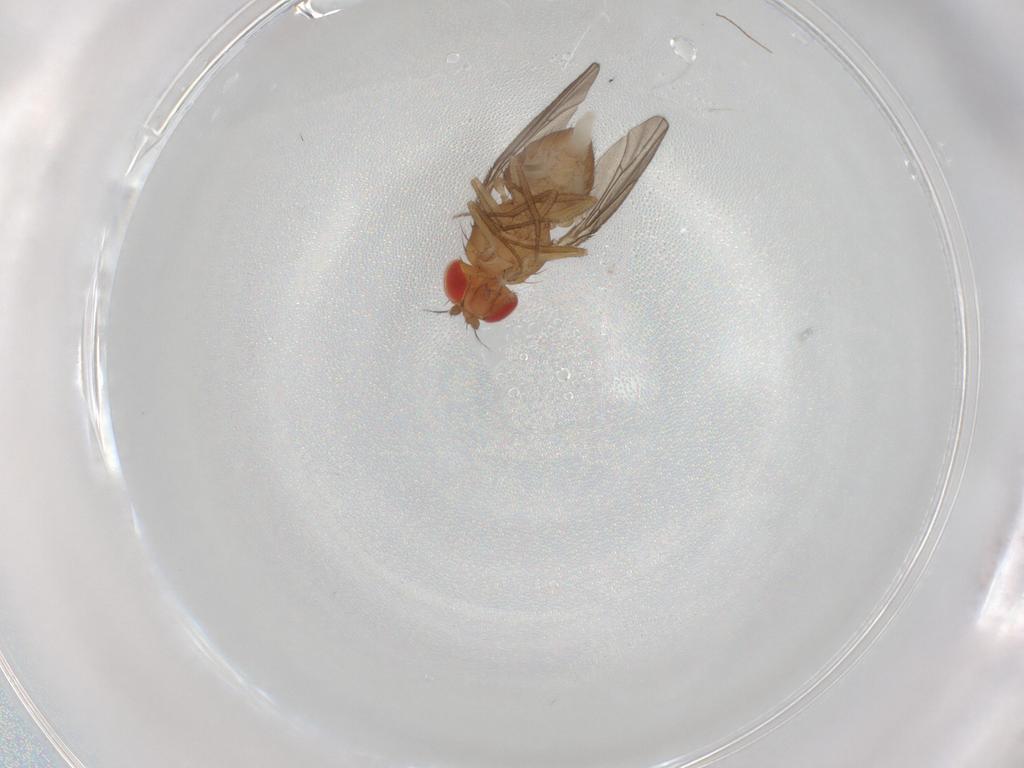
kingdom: Animalia
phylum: Arthropoda
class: Insecta
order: Diptera
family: Drosophilidae
